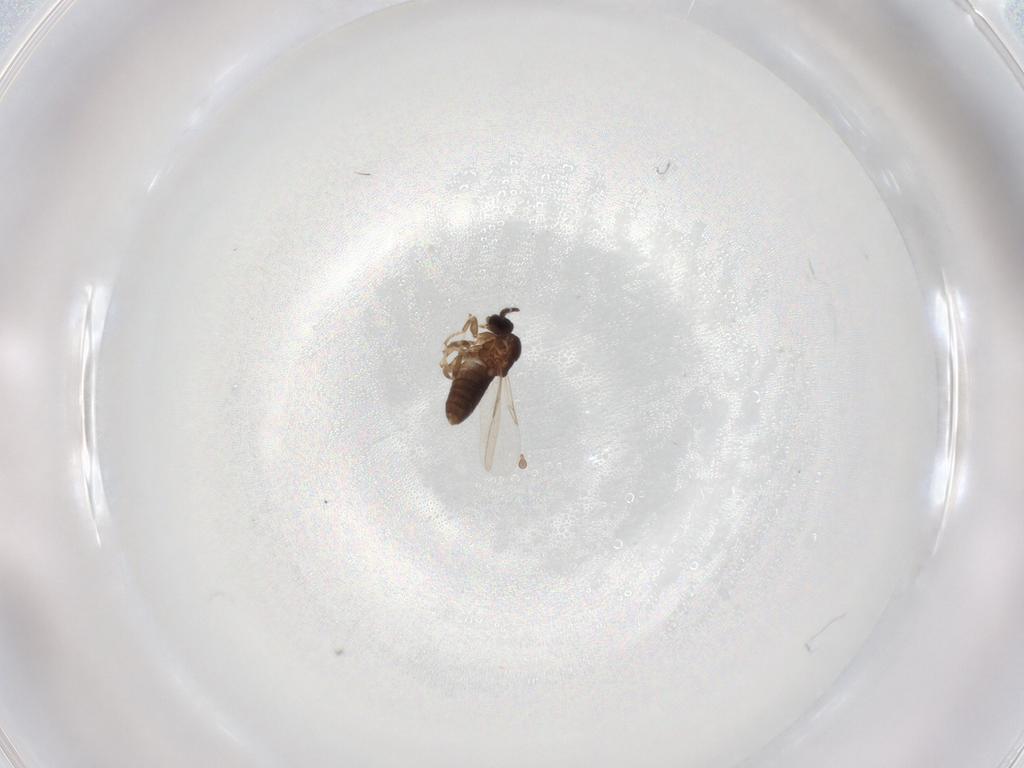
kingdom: Animalia
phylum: Arthropoda
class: Insecta
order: Diptera
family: Scatopsidae
